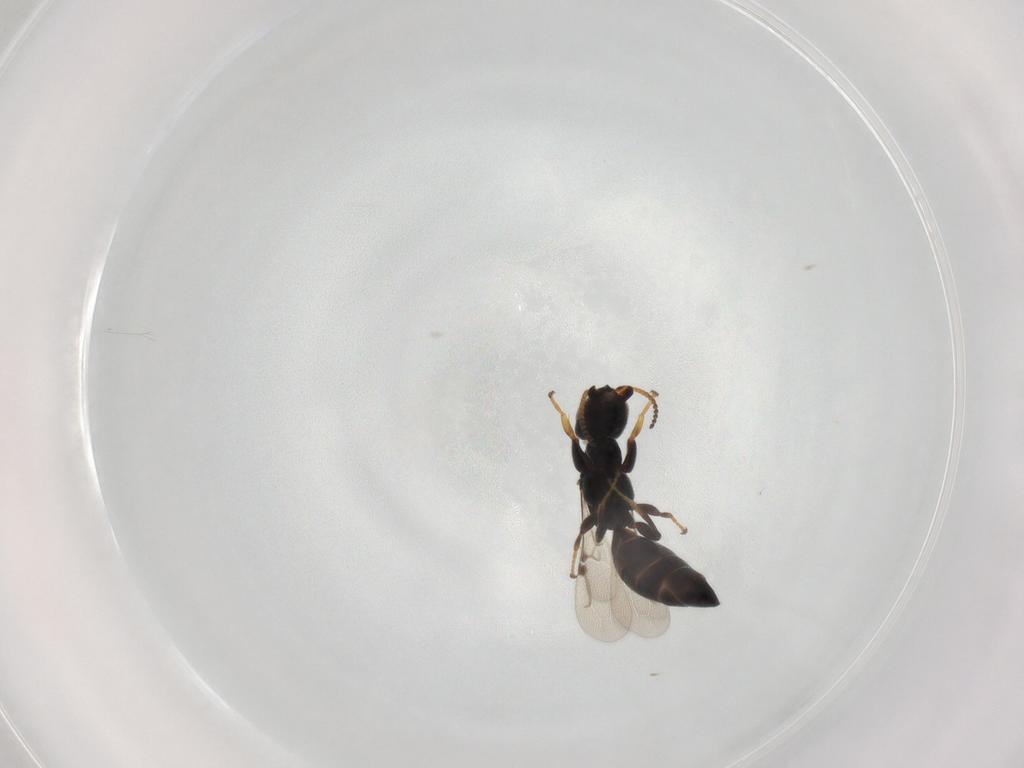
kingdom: Animalia
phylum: Arthropoda
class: Insecta
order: Hymenoptera
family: Bethylidae
